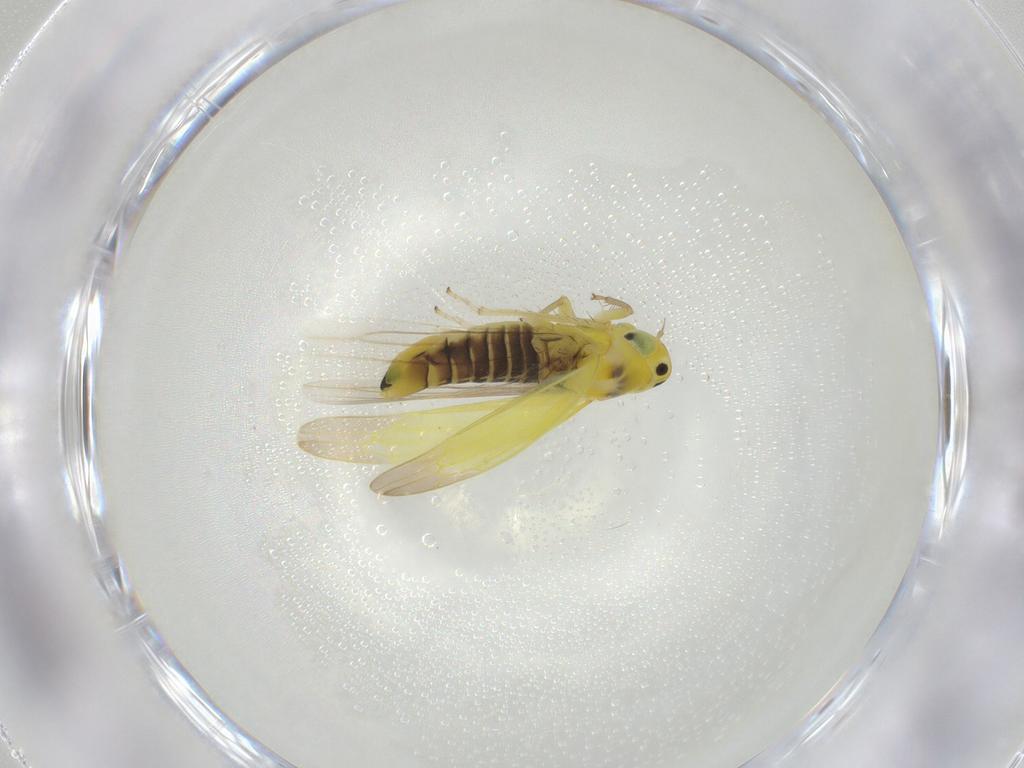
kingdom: Animalia
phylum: Arthropoda
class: Insecta
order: Hemiptera
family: Cicadellidae
